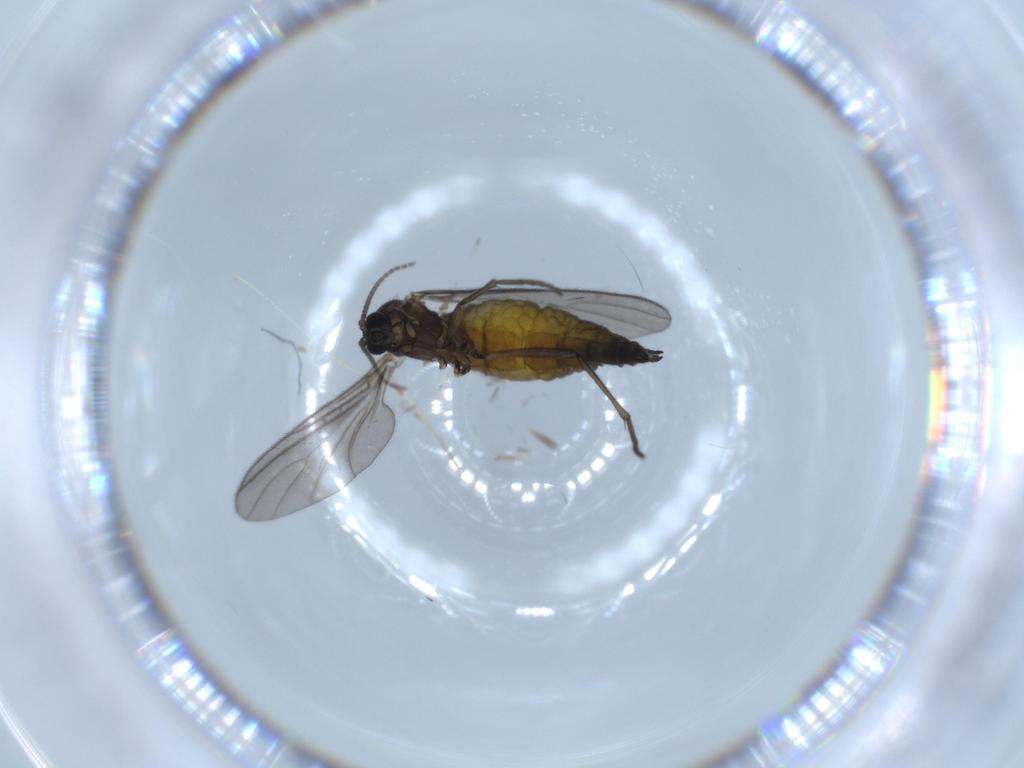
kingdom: Animalia
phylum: Arthropoda
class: Insecta
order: Diptera
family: Sciaridae
